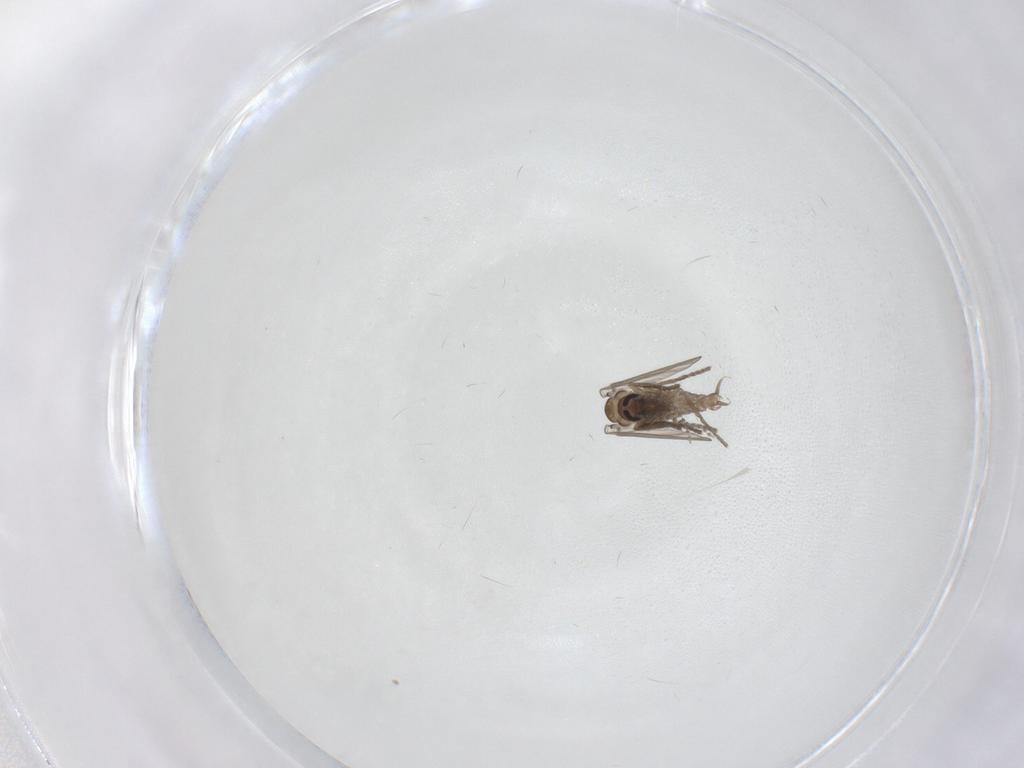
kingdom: Animalia
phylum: Arthropoda
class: Insecta
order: Diptera
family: Psychodidae
